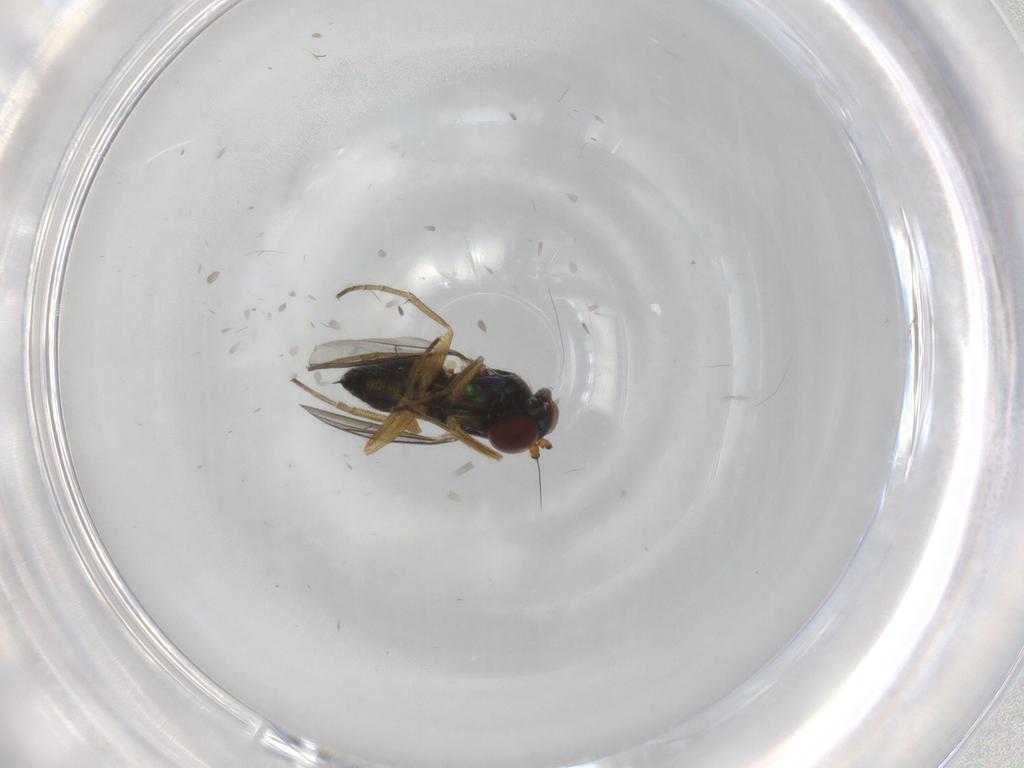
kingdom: Animalia
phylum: Arthropoda
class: Insecta
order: Diptera
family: Dolichopodidae
